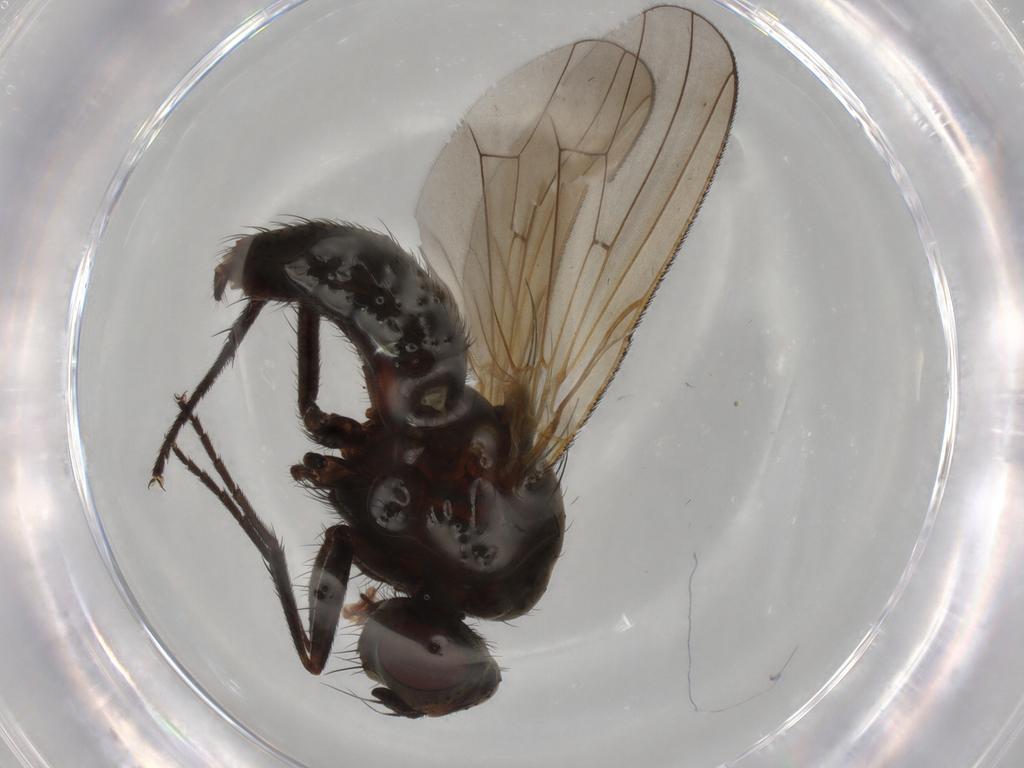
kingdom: Animalia
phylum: Arthropoda
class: Insecta
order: Diptera
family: Anthomyiidae
